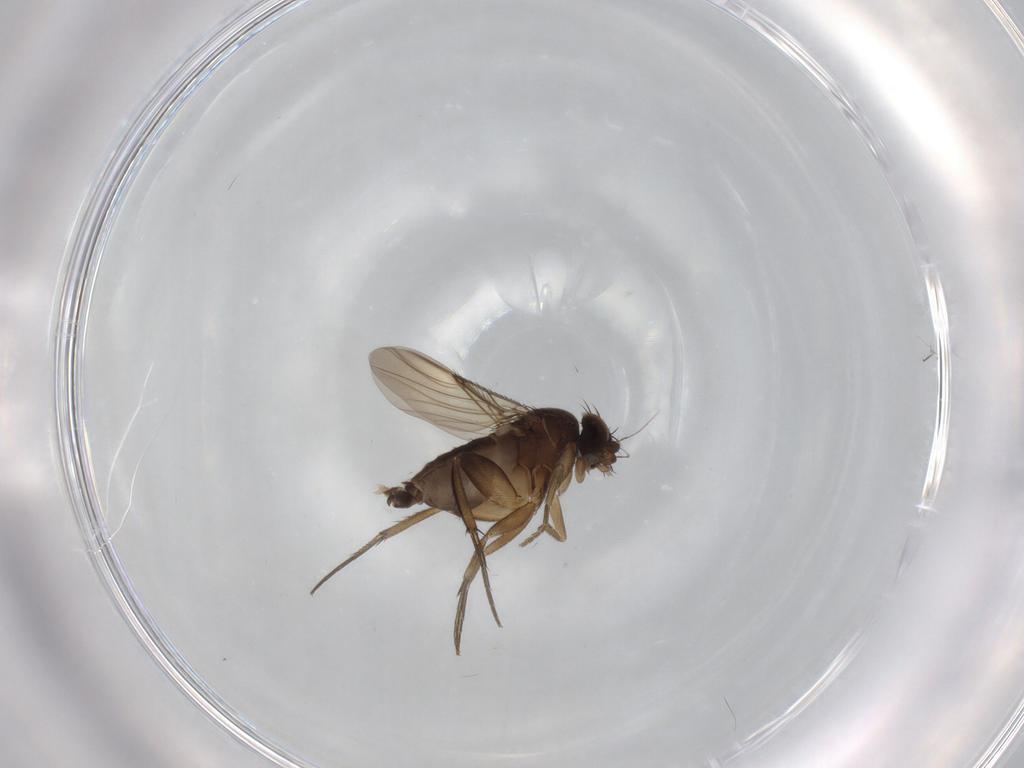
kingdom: Animalia
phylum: Arthropoda
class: Insecta
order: Diptera
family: Phoridae
